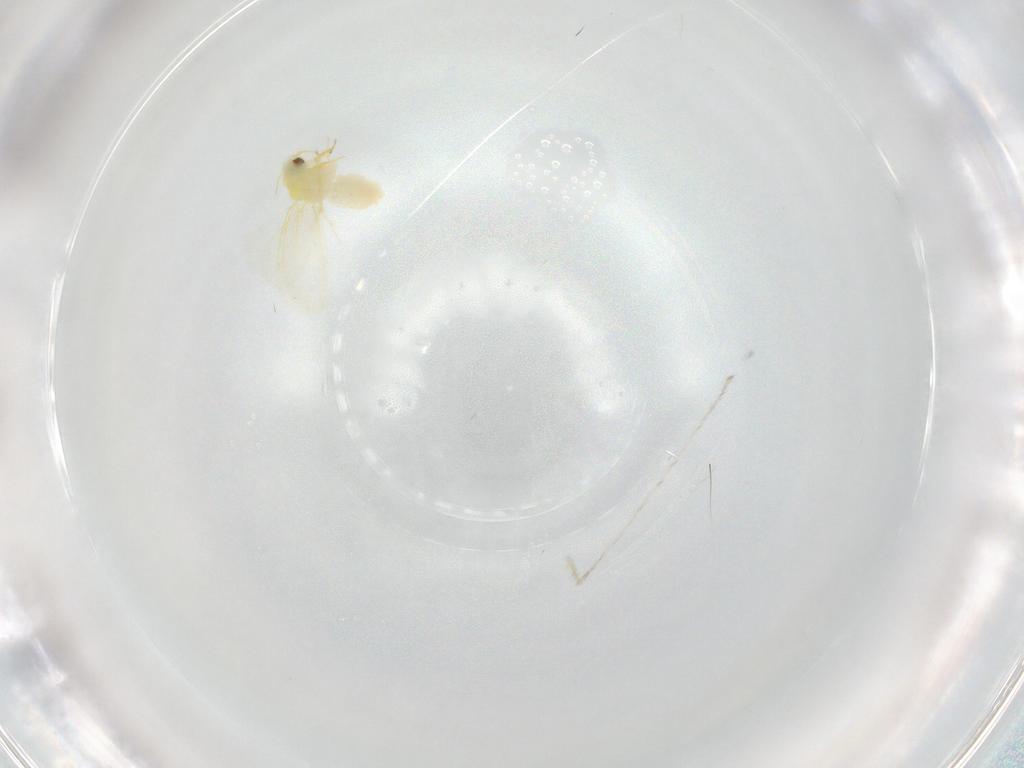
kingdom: Animalia
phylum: Arthropoda
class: Insecta
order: Hemiptera
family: Aleyrodidae
